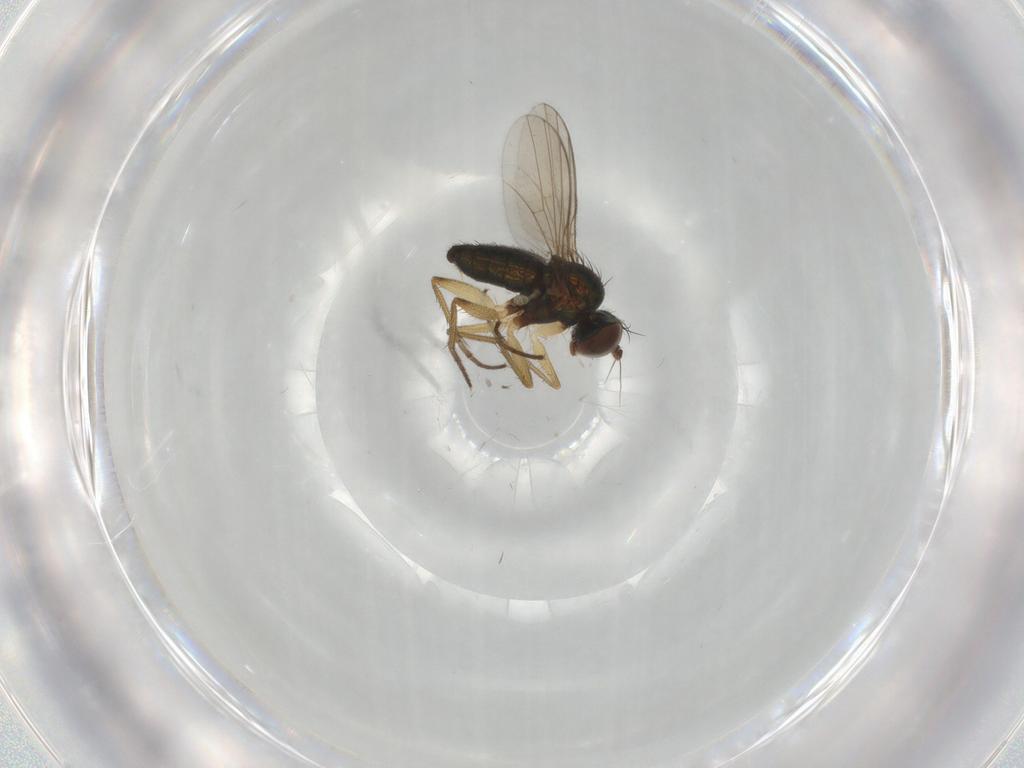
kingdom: Animalia
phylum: Arthropoda
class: Insecta
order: Diptera
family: Dolichopodidae
